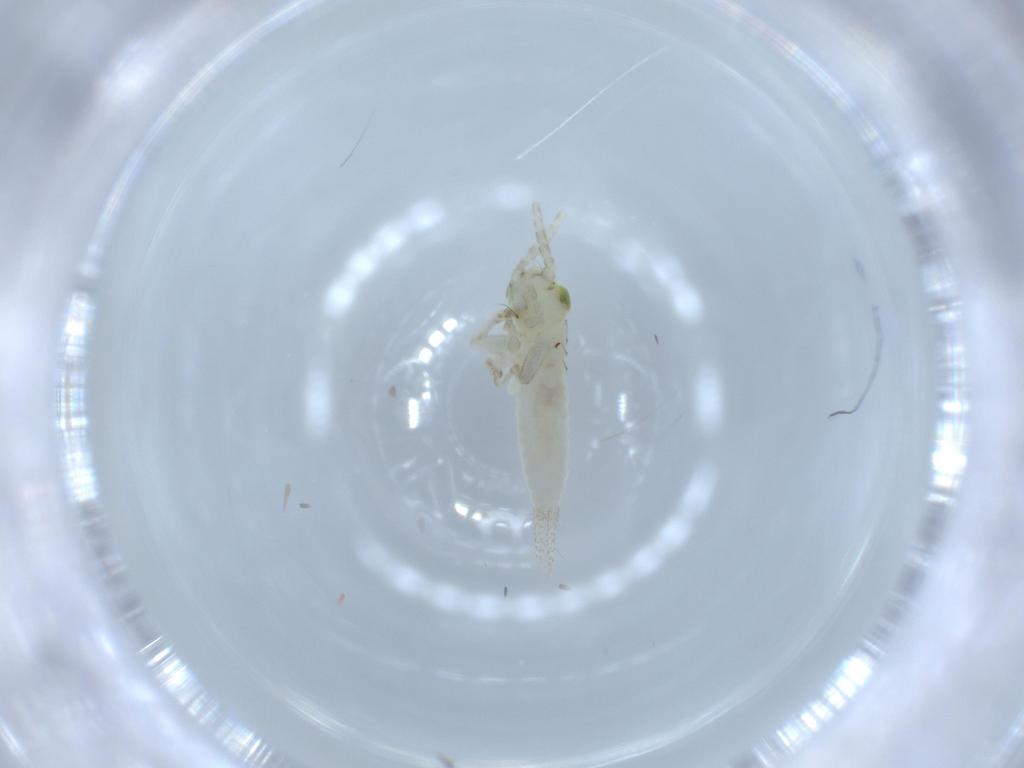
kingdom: Animalia
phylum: Arthropoda
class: Insecta
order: Orthoptera
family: Trigonidiidae
